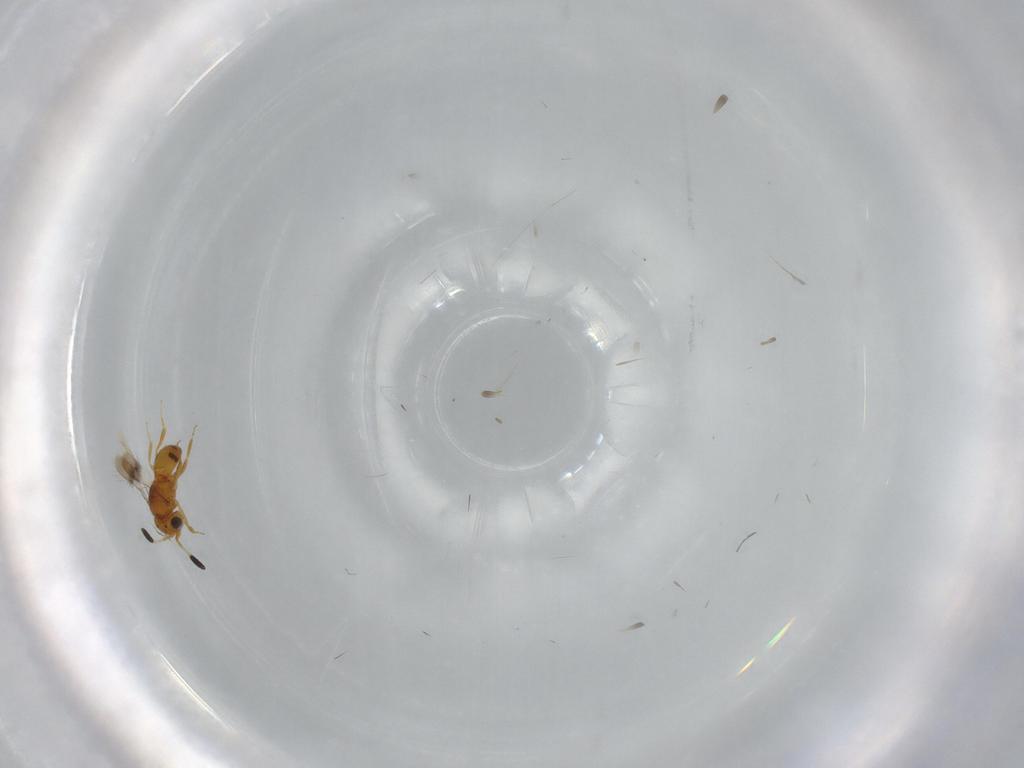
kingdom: Animalia
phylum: Arthropoda
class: Insecta
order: Hymenoptera
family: Scelionidae
